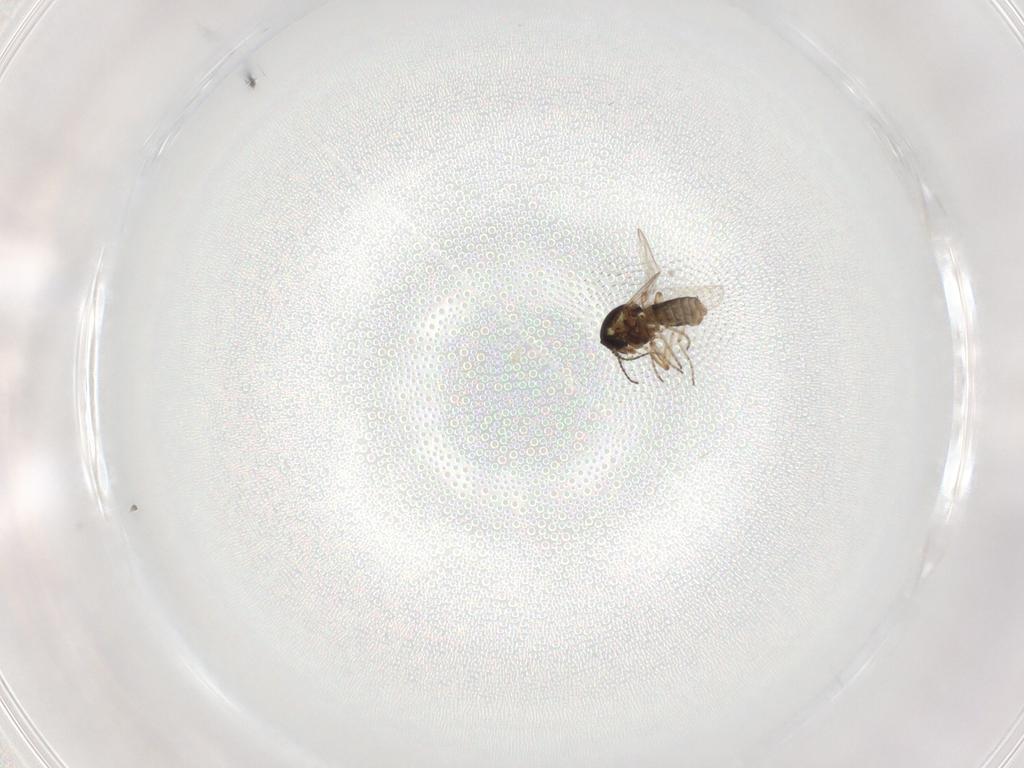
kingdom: Animalia
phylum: Arthropoda
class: Insecta
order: Diptera
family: Ceratopogonidae
